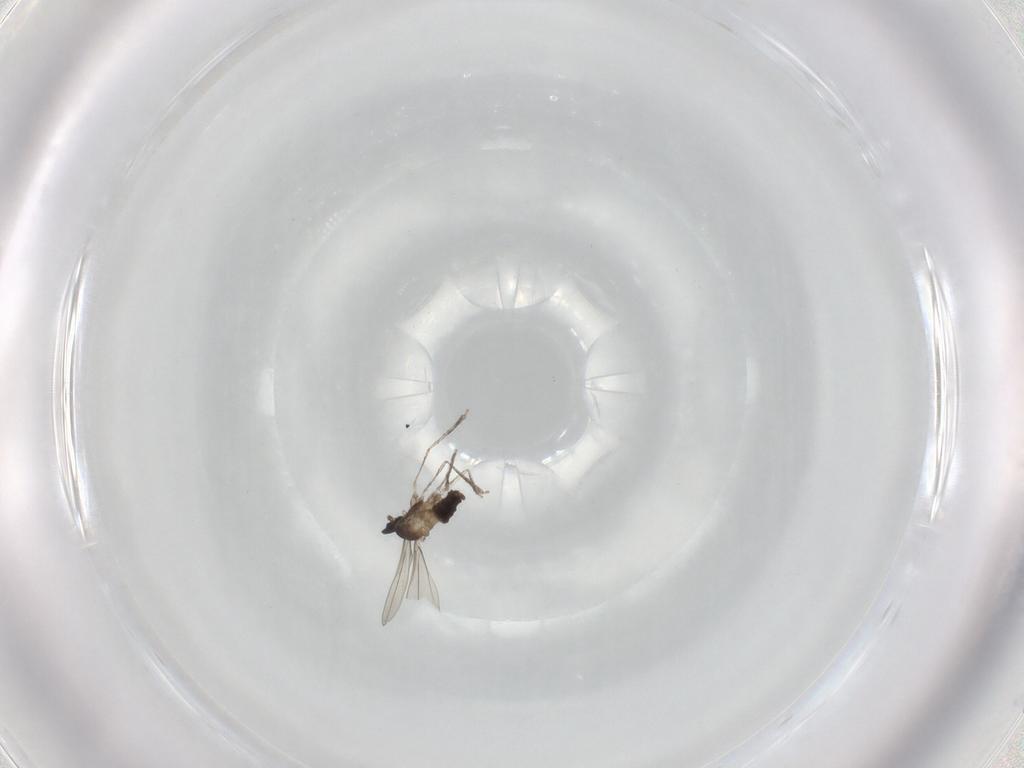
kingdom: Animalia
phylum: Arthropoda
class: Insecta
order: Diptera
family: Cecidomyiidae
